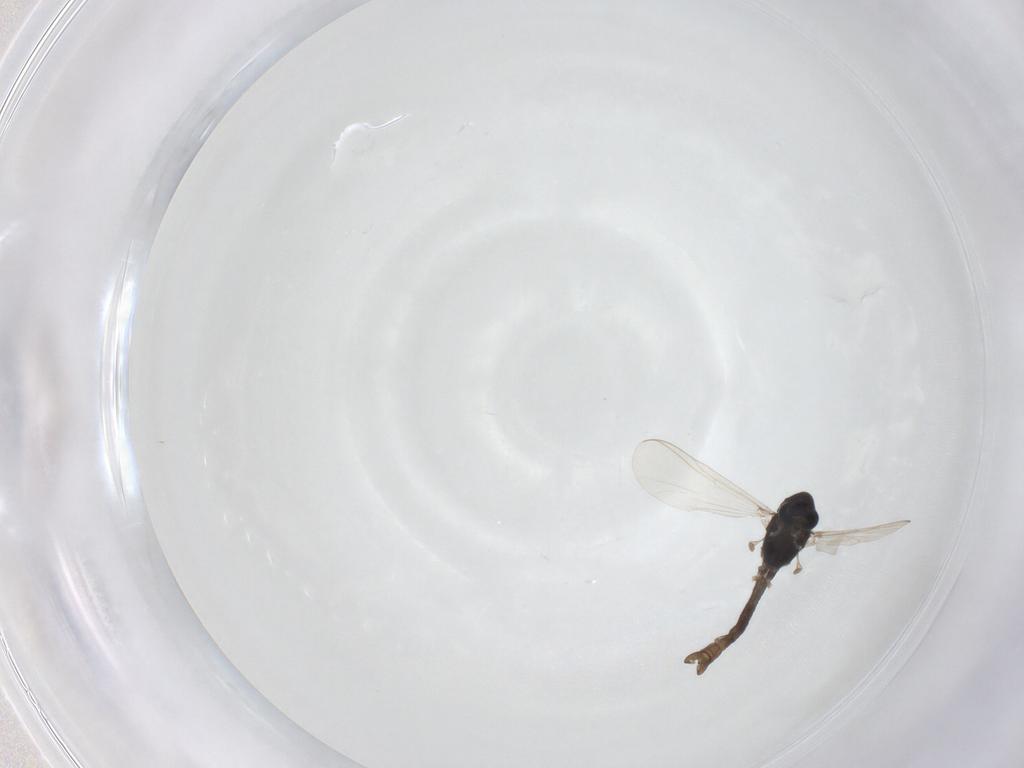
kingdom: Animalia
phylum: Arthropoda
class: Insecta
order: Diptera
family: Chironomidae
